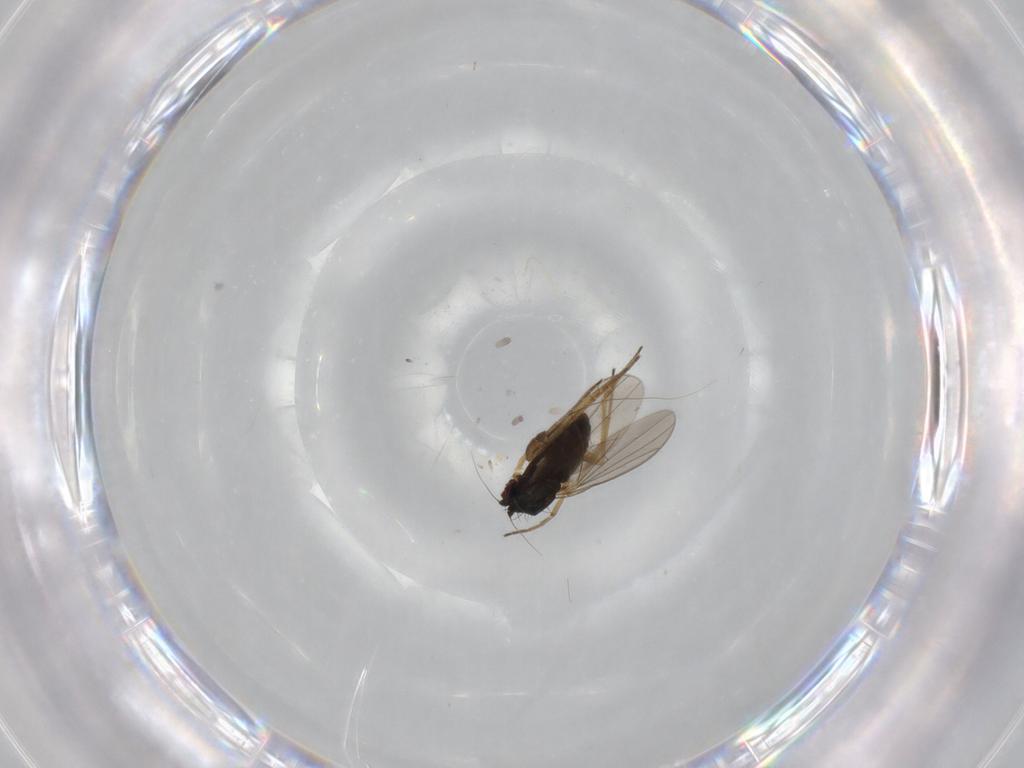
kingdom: Animalia
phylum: Arthropoda
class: Insecta
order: Diptera
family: Dolichopodidae
